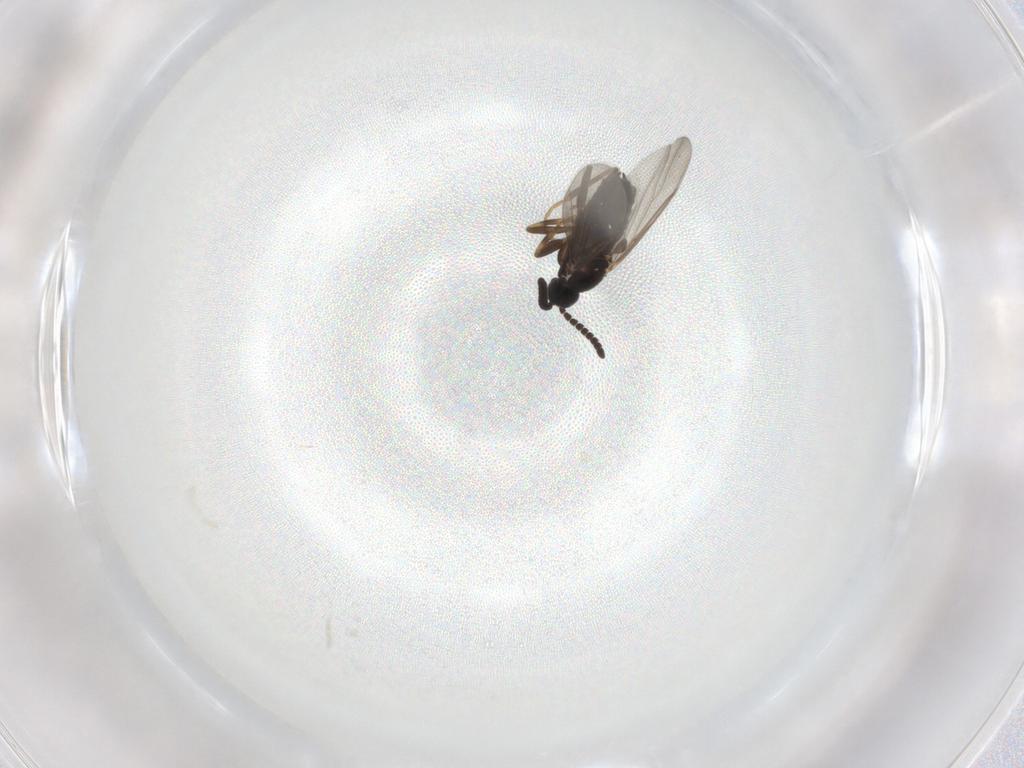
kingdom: Animalia
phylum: Arthropoda
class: Insecta
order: Diptera
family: Scatopsidae
